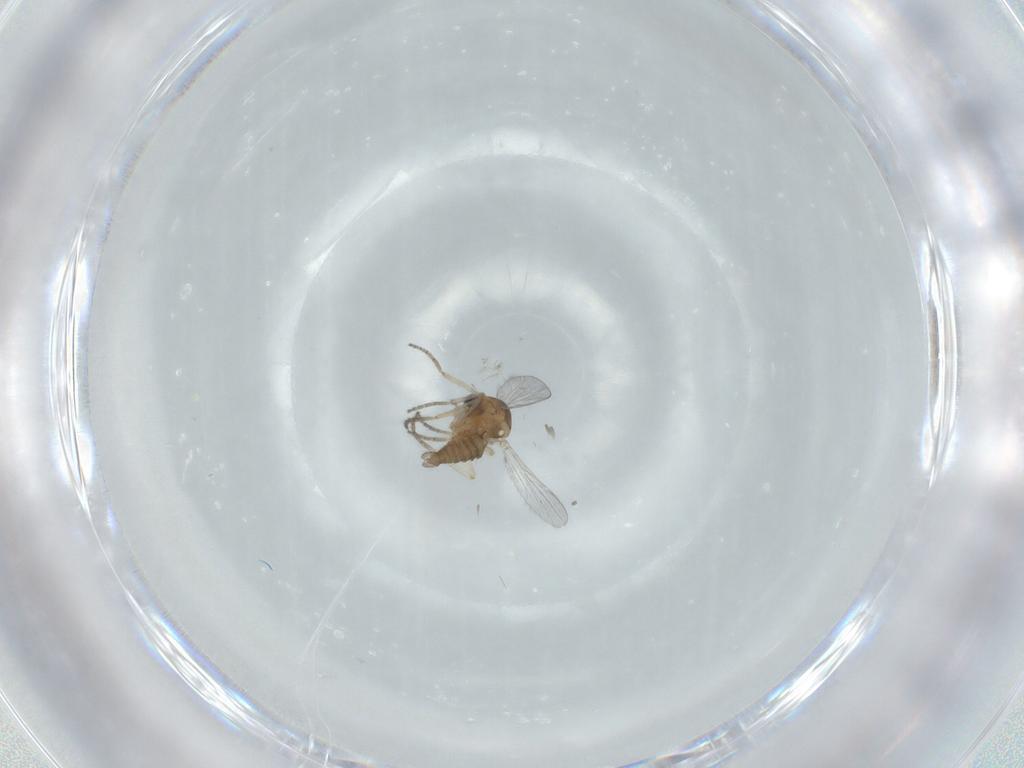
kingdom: Animalia
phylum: Arthropoda
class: Insecta
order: Diptera
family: Ceratopogonidae
